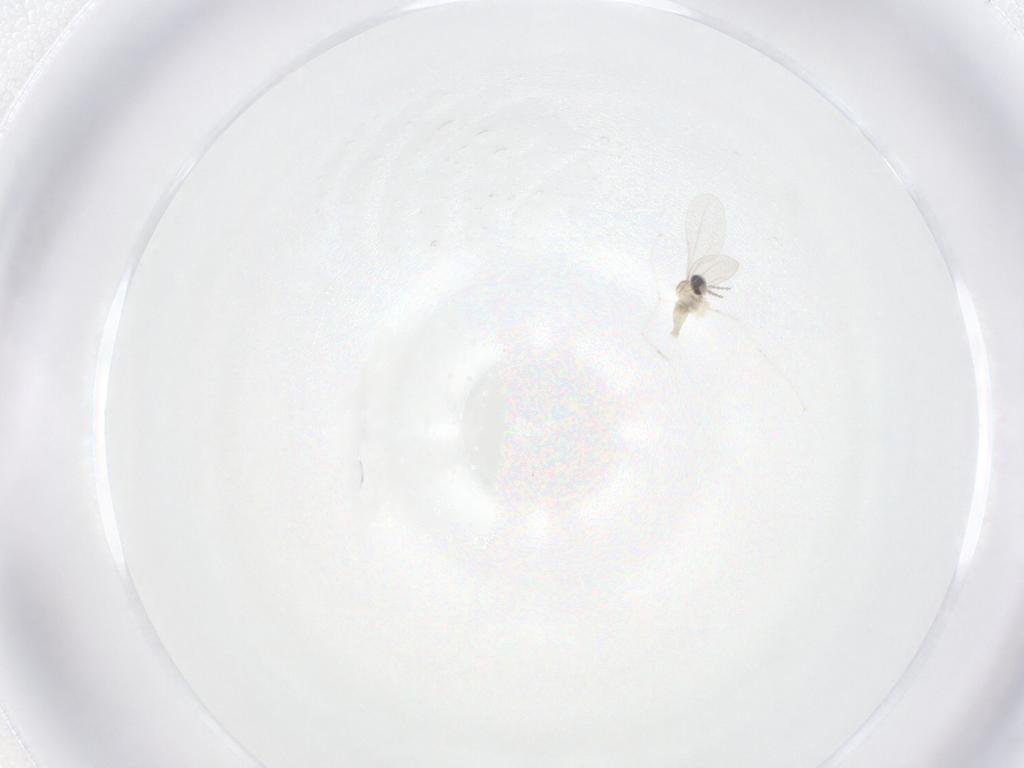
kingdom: Animalia
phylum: Arthropoda
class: Insecta
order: Diptera
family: Cecidomyiidae
